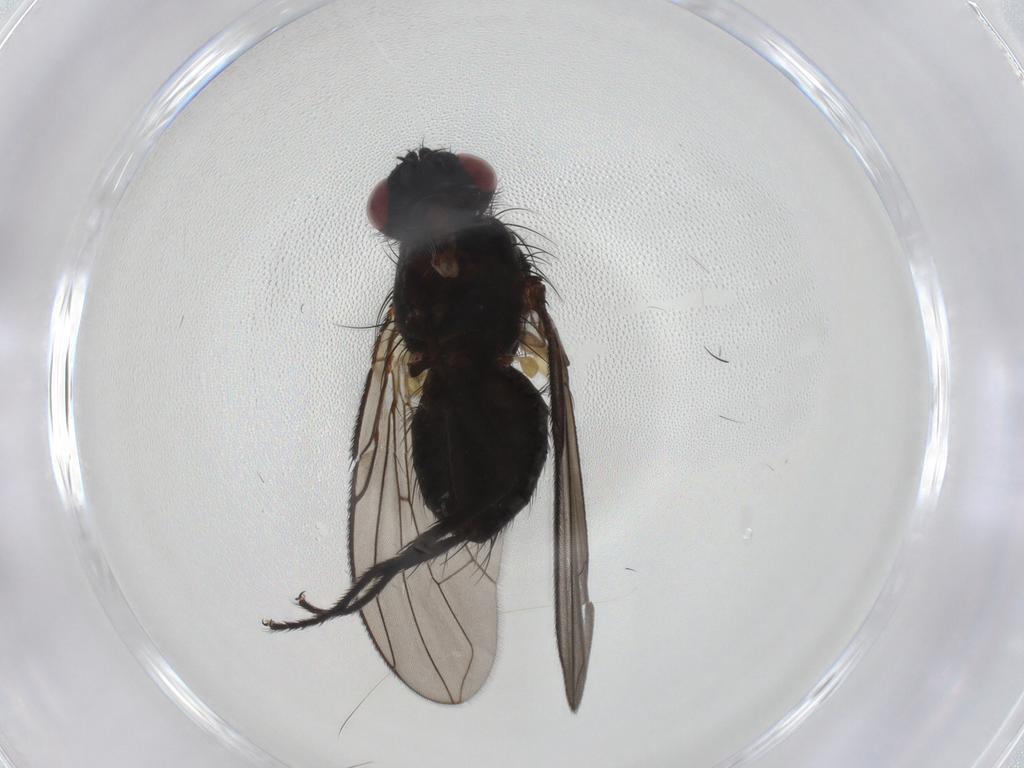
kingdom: Animalia
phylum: Arthropoda
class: Insecta
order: Diptera
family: Tachinidae
